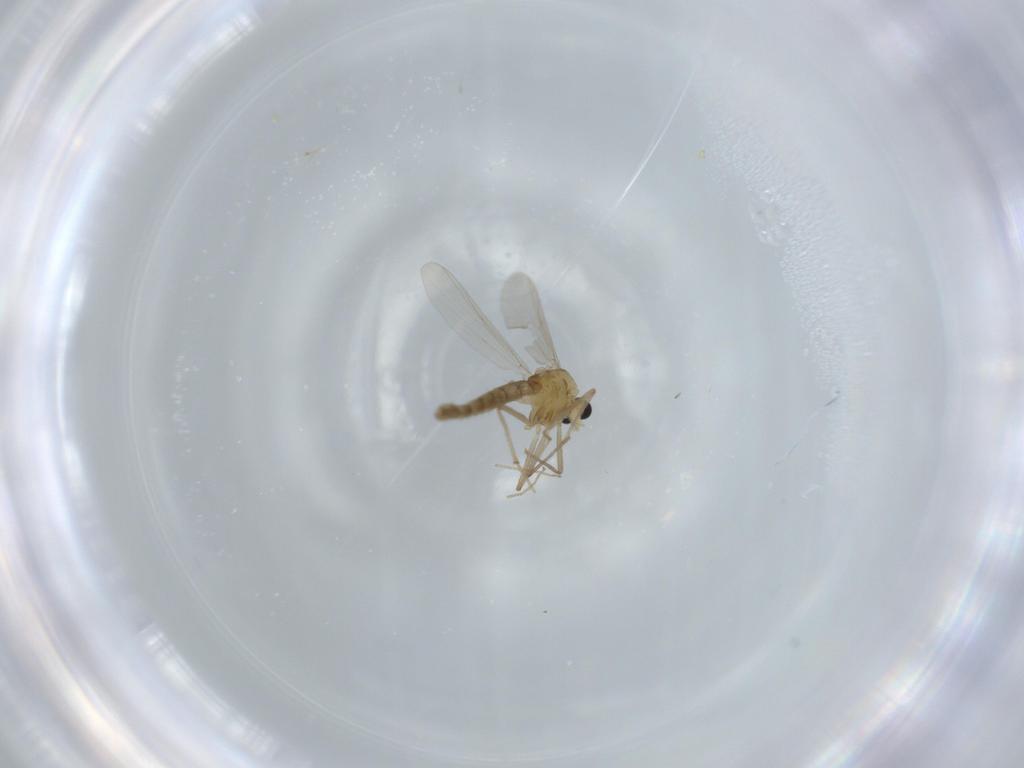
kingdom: Animalia
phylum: Arthropoda
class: Insecta
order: Diptera
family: Chironomidae
